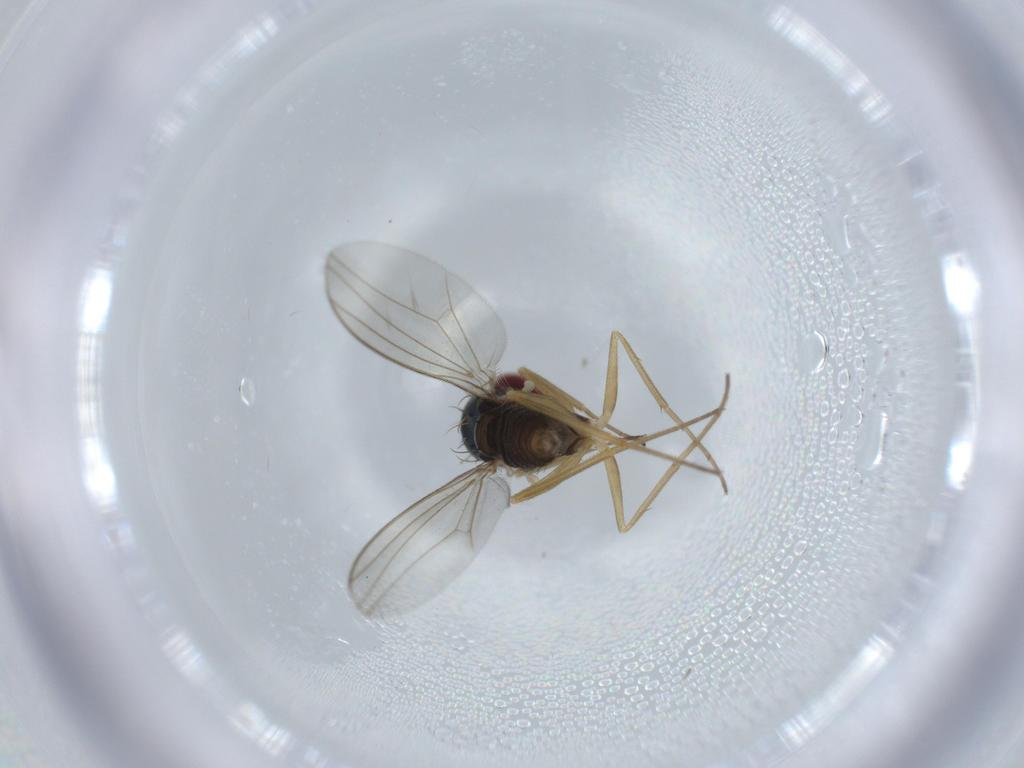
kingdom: Animalia
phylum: Arthropoda
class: Insecta
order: Diptera
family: Dolichopodidae
